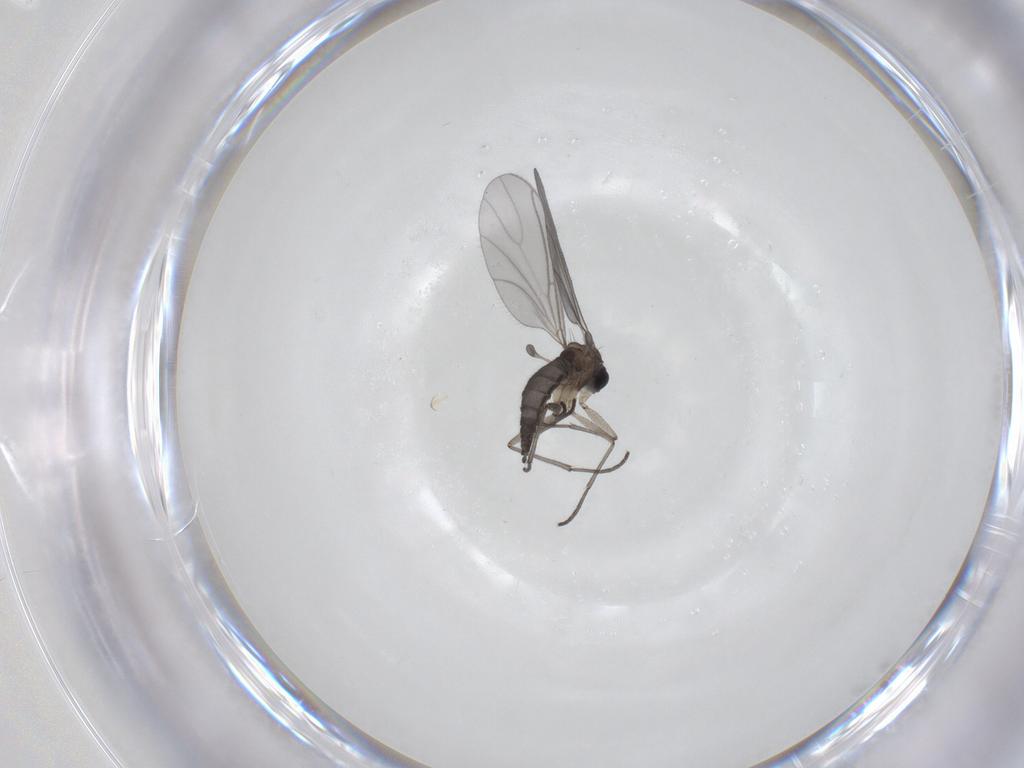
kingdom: Animalia
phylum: Arthropoda
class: Insecta
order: Diptera
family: Sciaridae
